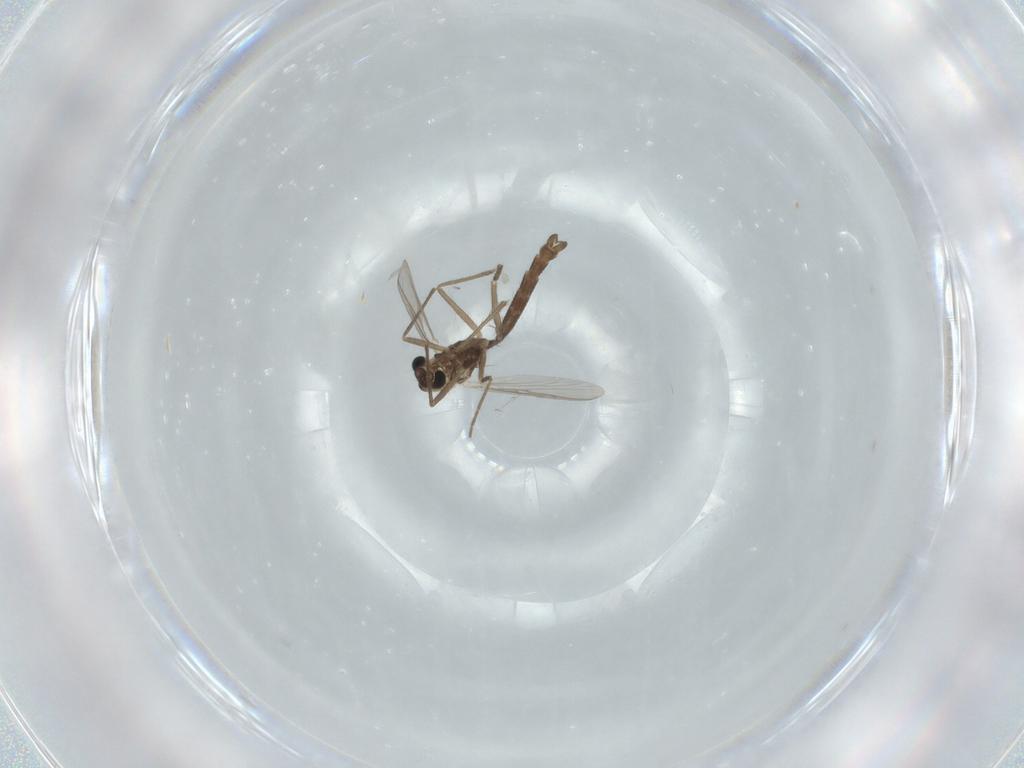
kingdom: Animalia
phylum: Arthropoda
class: Insecta
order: Diptera
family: Chironomidae
